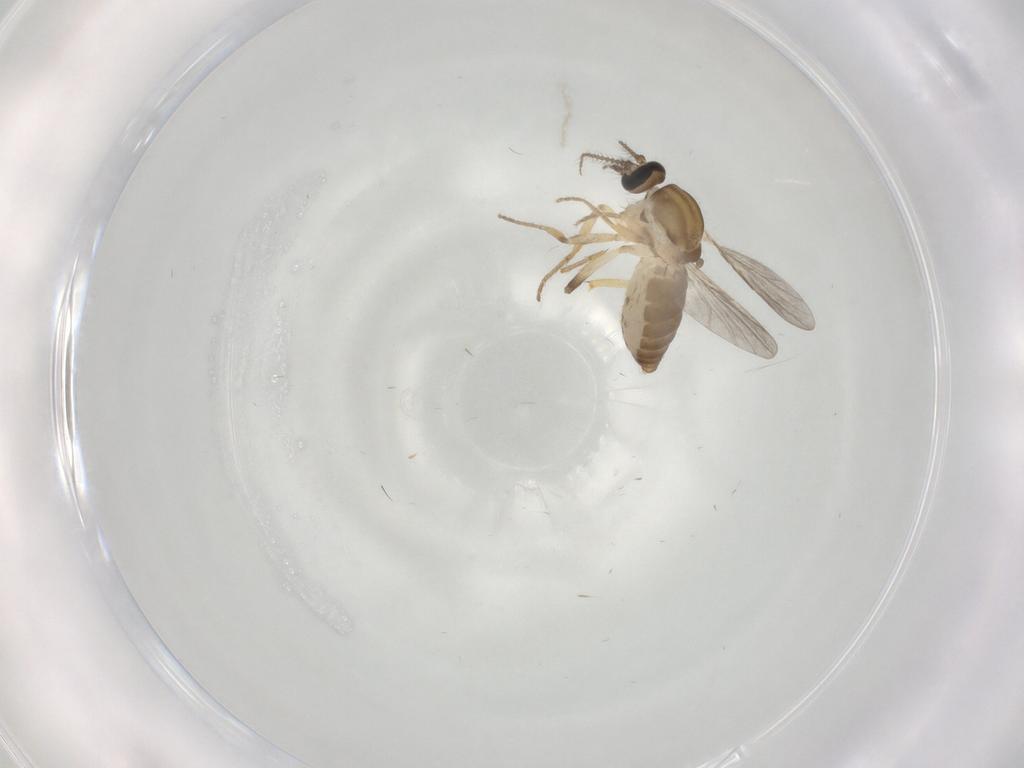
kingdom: Animalia
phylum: Arthropoda
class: Insecta
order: Diptera
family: Ceratopogonidae
